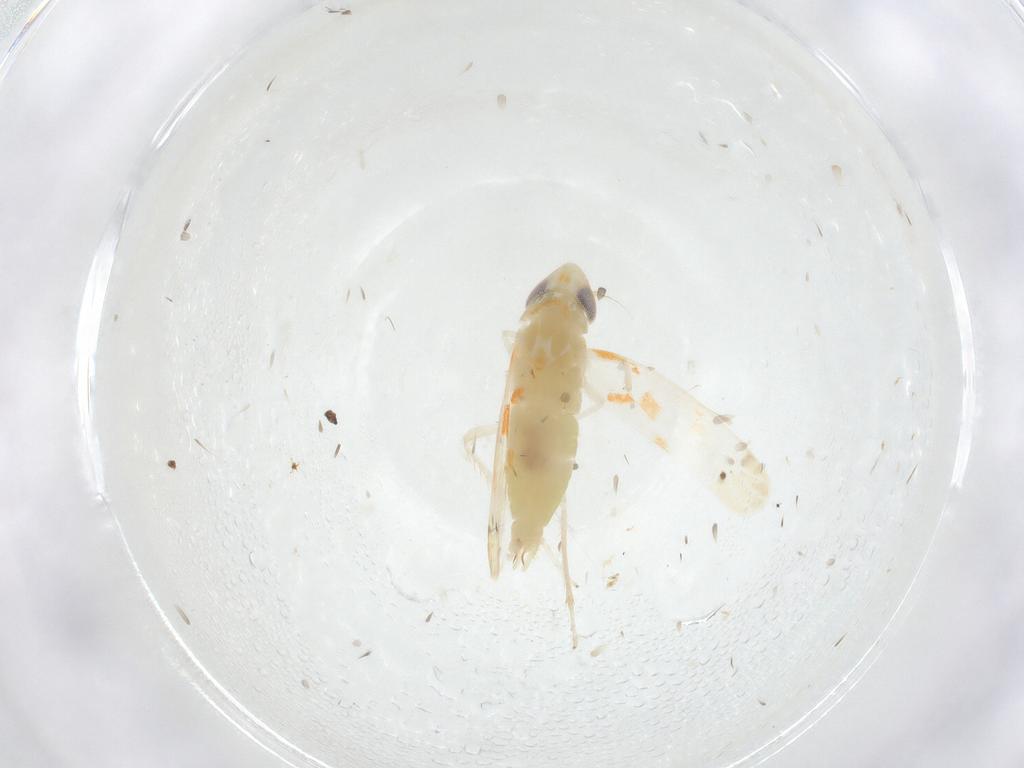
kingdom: Animalia
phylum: Arthropoda
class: Insecta
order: Hemiptera
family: Cicadellidae
